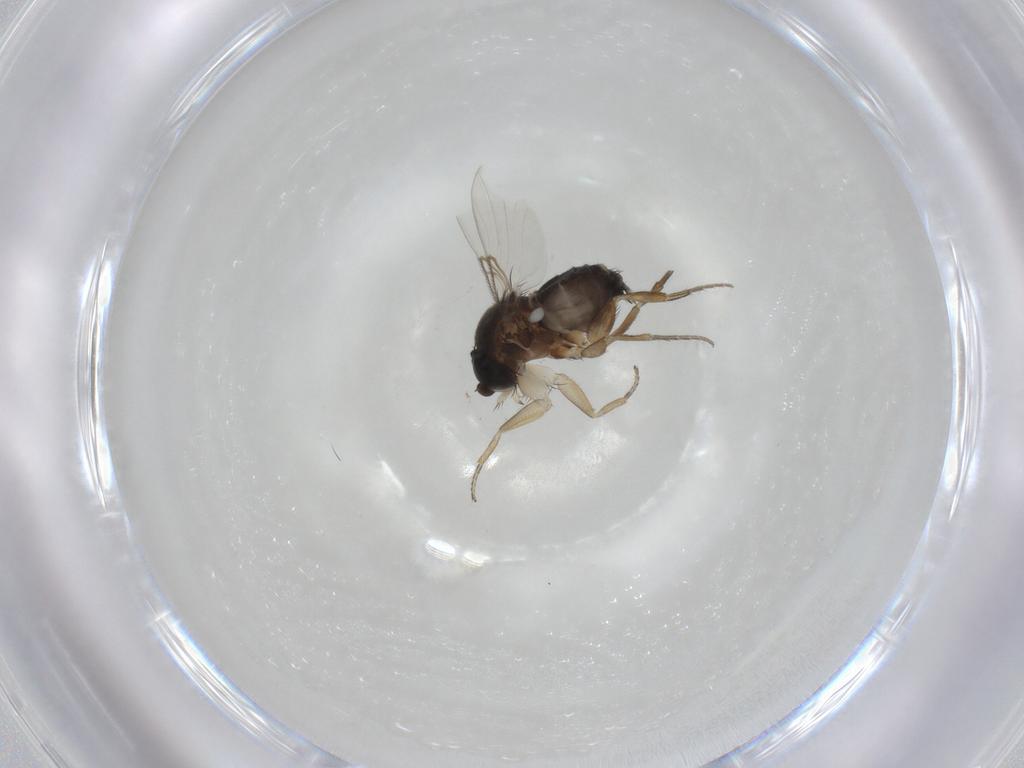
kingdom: Animalia
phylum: Arthropoda
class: Insecta
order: Diptera
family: Phoridae
